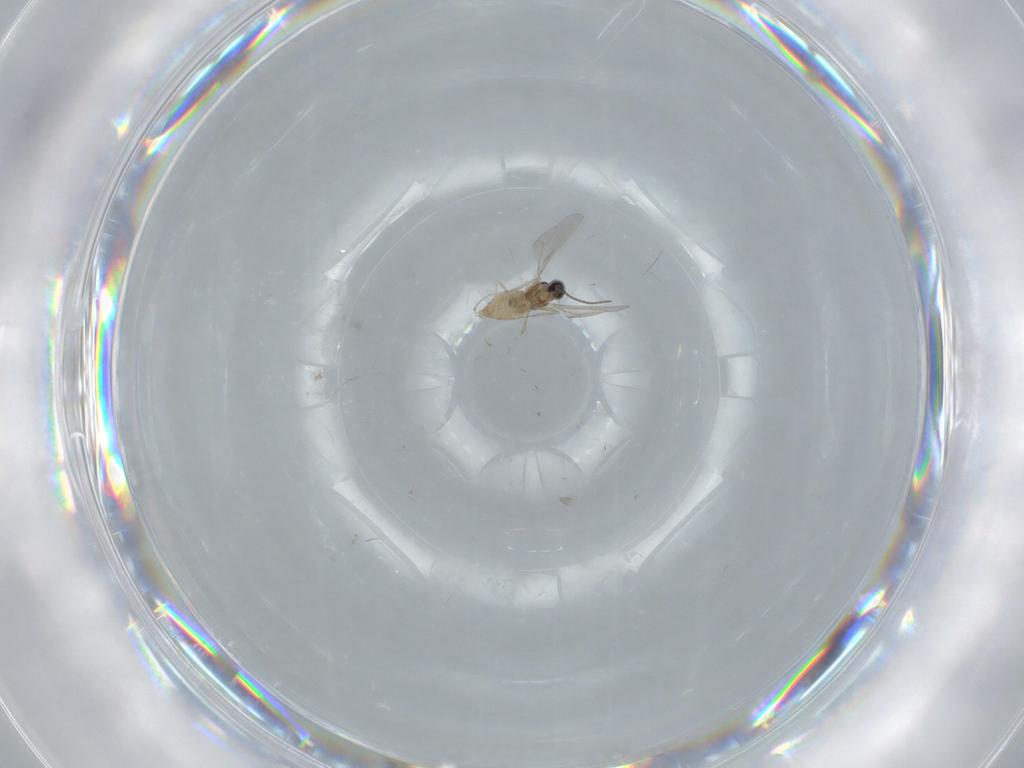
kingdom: Animalia
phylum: Arthropoda
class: Insecta
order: Diptera
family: Cecidomyiidae
